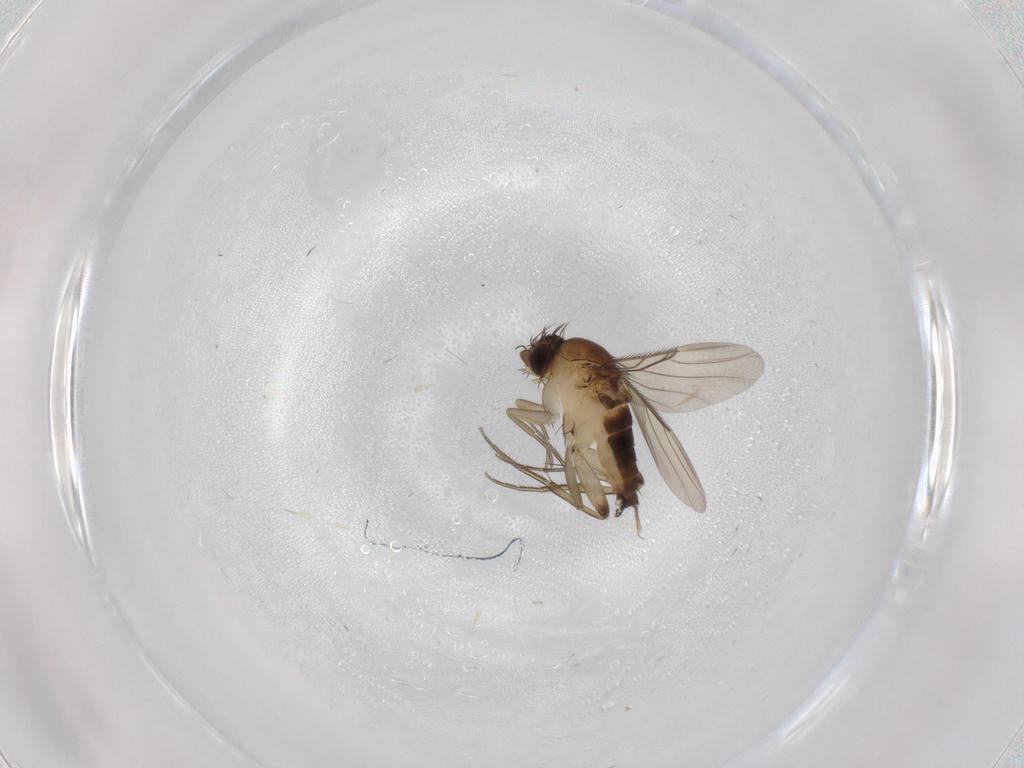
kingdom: Animalia
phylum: Arthropoda
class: Insecta
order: Diptera
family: Phoridae
